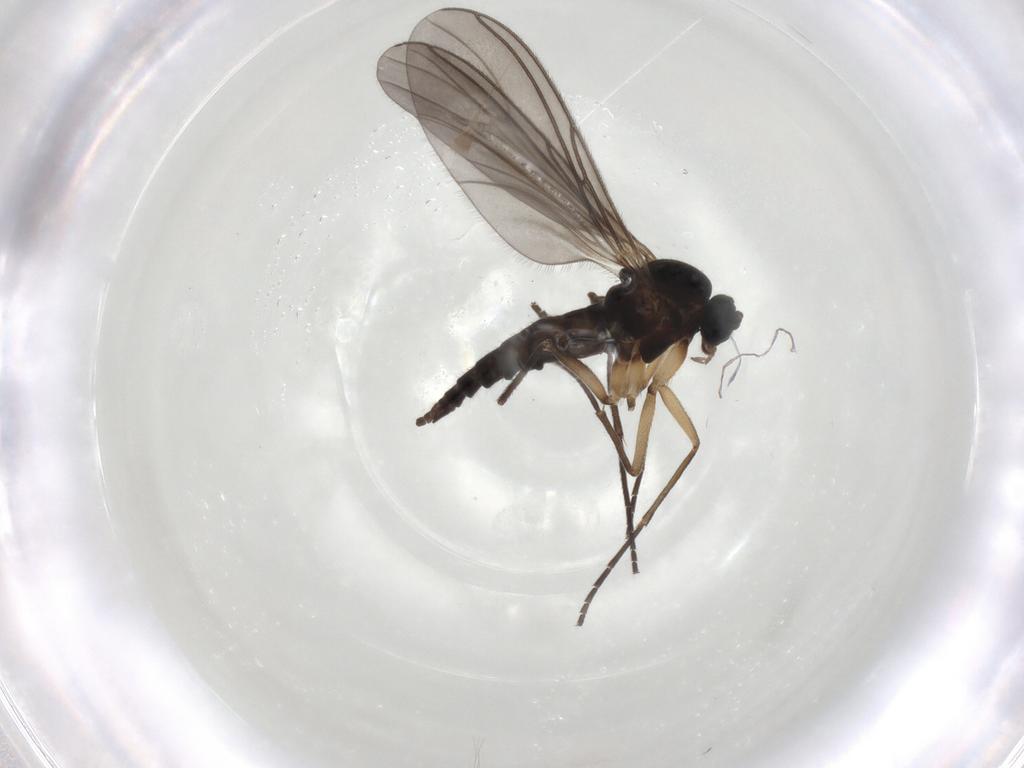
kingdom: Animalia
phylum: Arthropoda
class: Insecta
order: Diptera
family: Sciaridae
